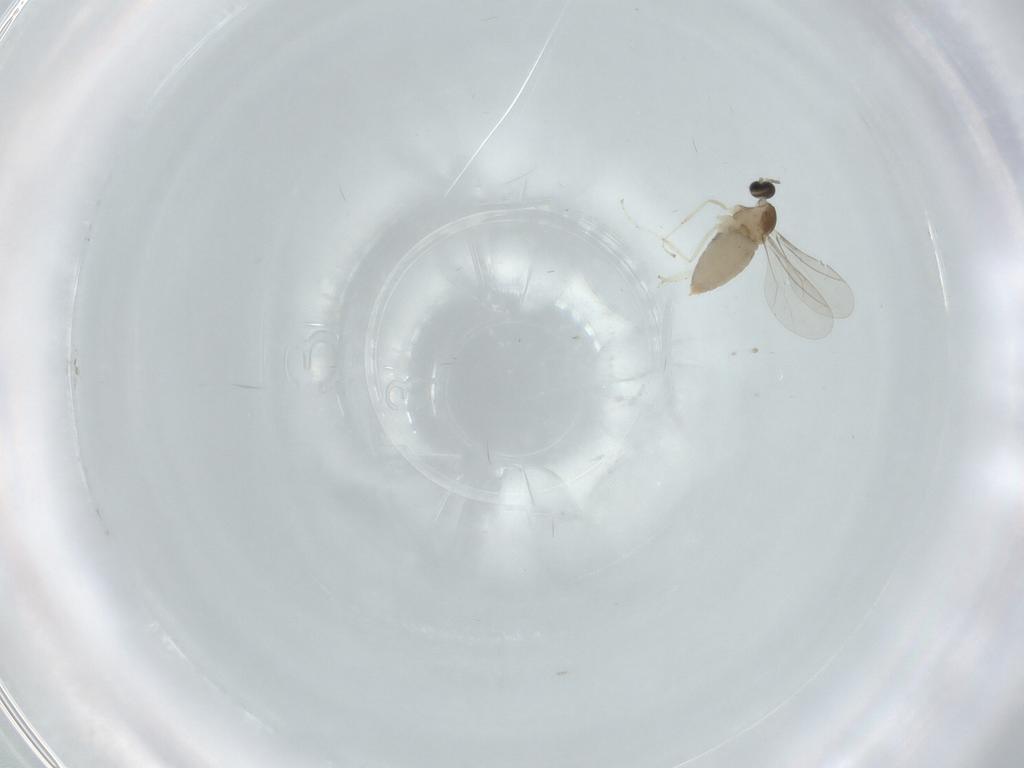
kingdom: Animalia
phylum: Arthropoda
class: Insecta
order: Diptera
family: Cecidomyiidae
